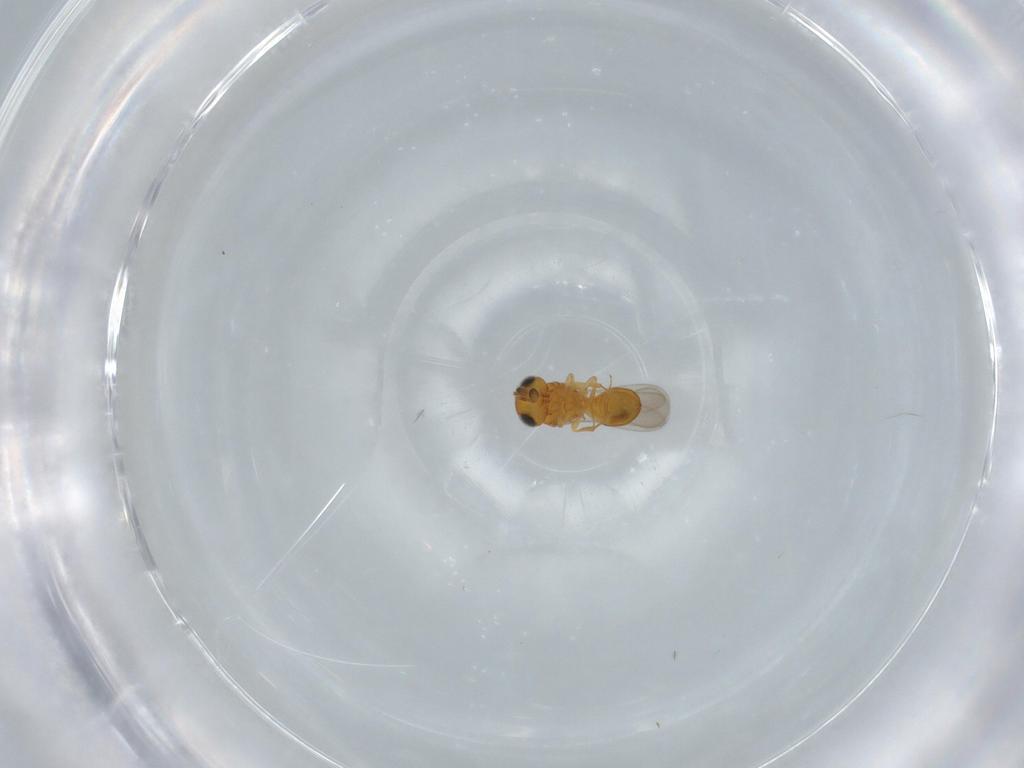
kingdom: Animalia
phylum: Arthropoda
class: Insecta
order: Hymenoptera
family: Scelionidae
